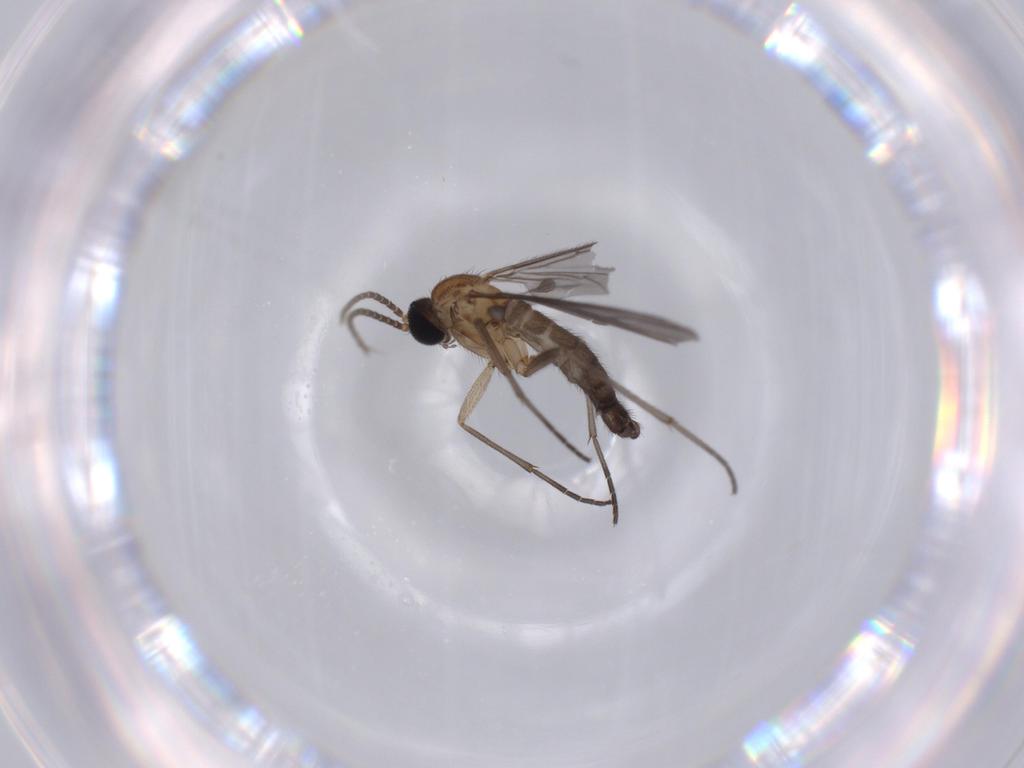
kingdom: Animalia
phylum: Arthropoda
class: Insecta
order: Diptera
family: Sciaridae
